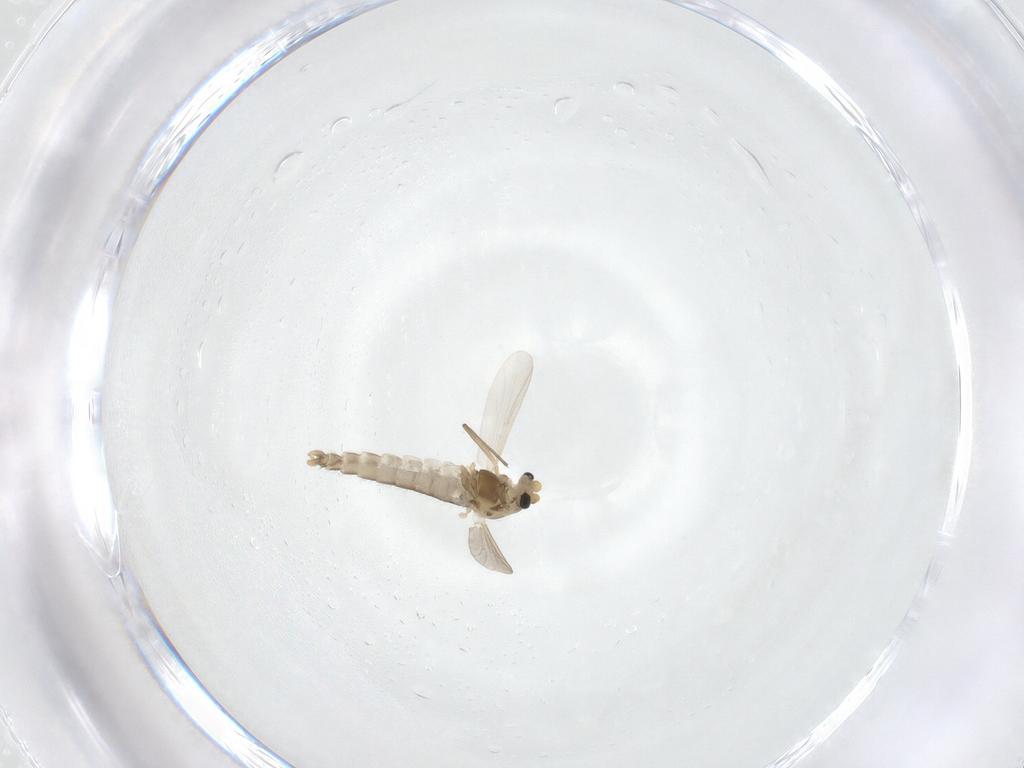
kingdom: Animalia
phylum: Arthropoda
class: Insecta
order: Diptera
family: Chironomidae
